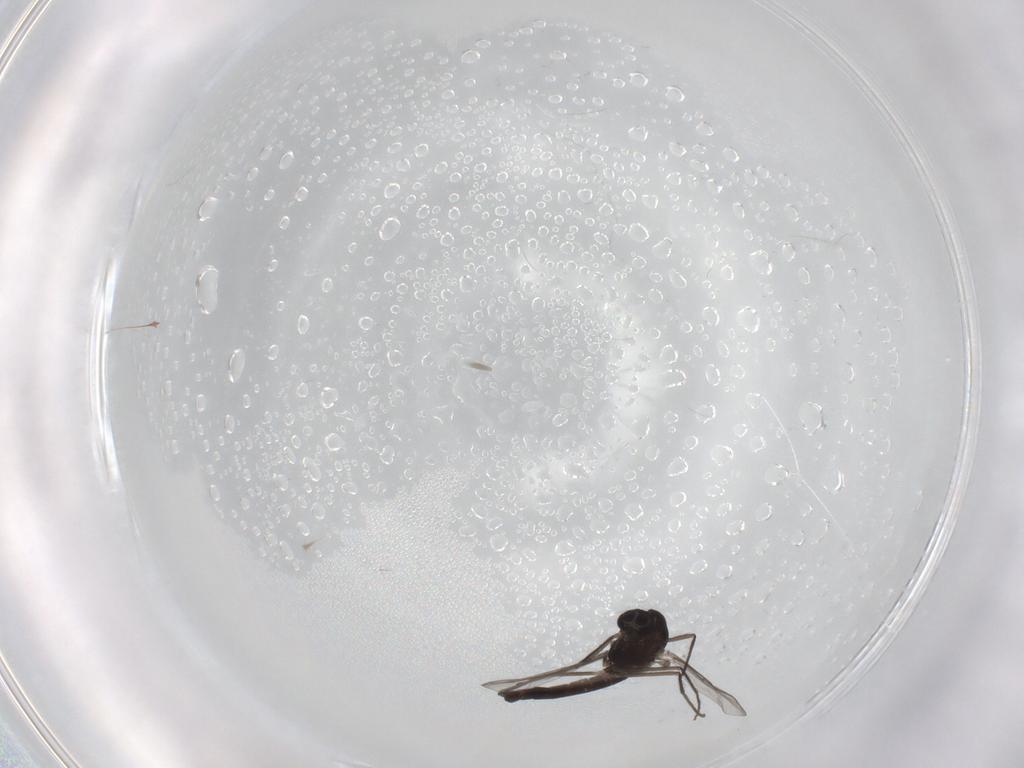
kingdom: Animalia
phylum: Arthropoda
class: Insecta
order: Diptera
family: Chironomidae
